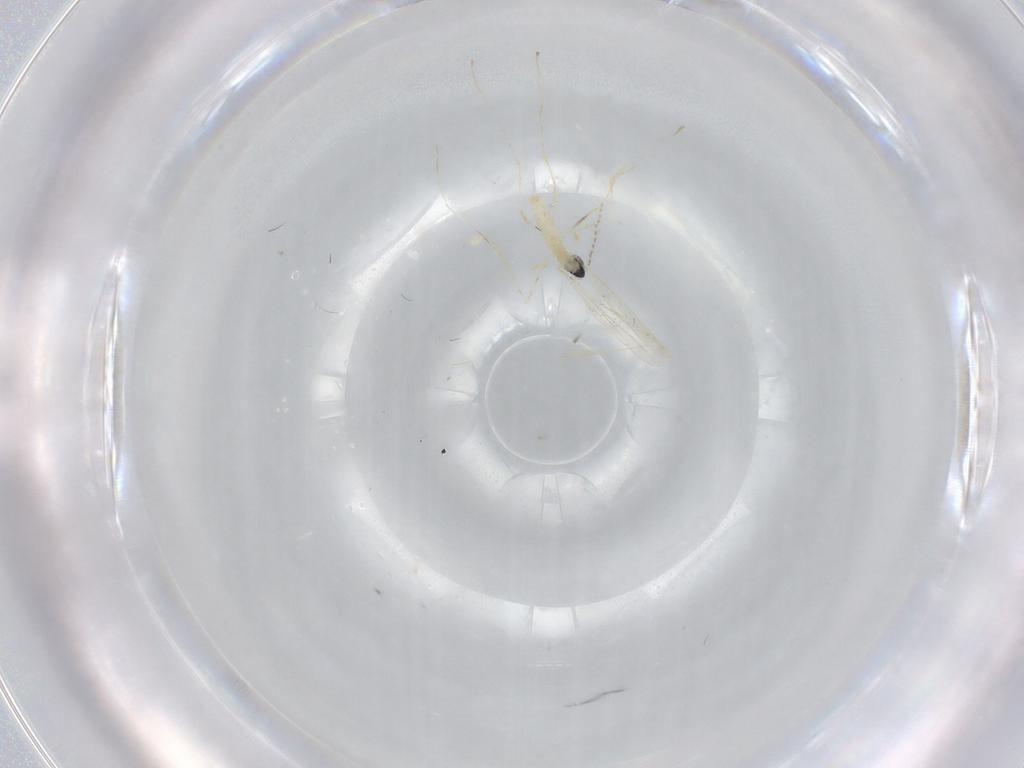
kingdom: Animalia
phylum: Arthropoda
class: Insecta
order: Diptera
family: Cecidomyiidae
